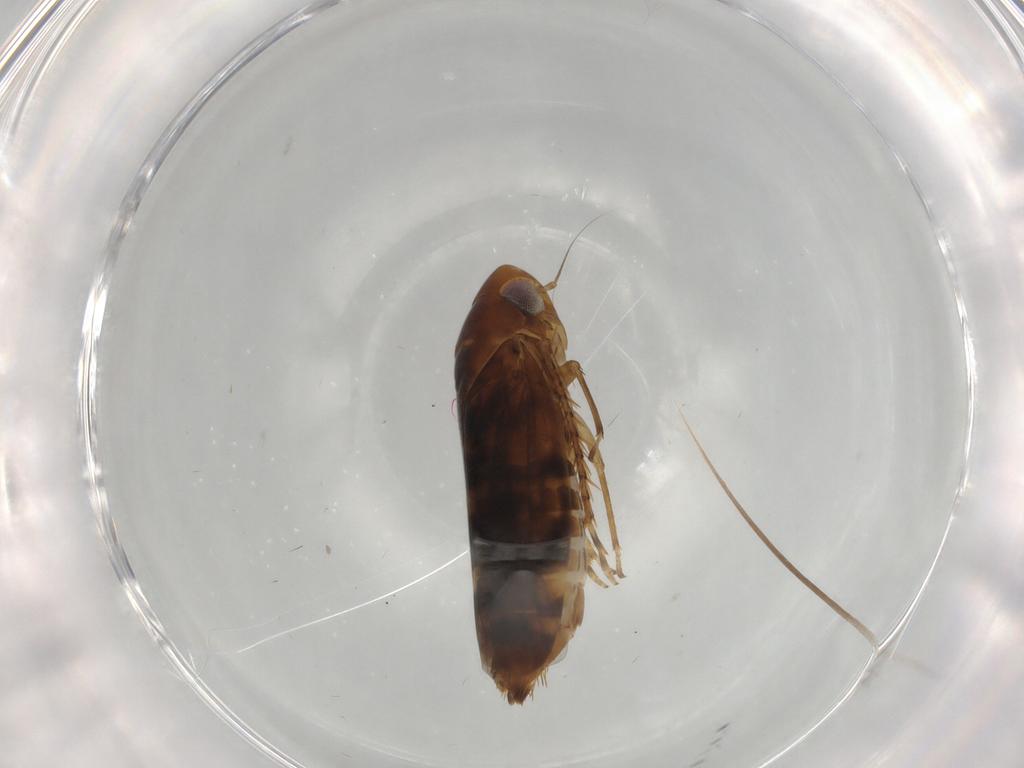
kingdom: Animalia
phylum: Arthropoda
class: Insecta
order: Hemiptera
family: Cicadellidae
